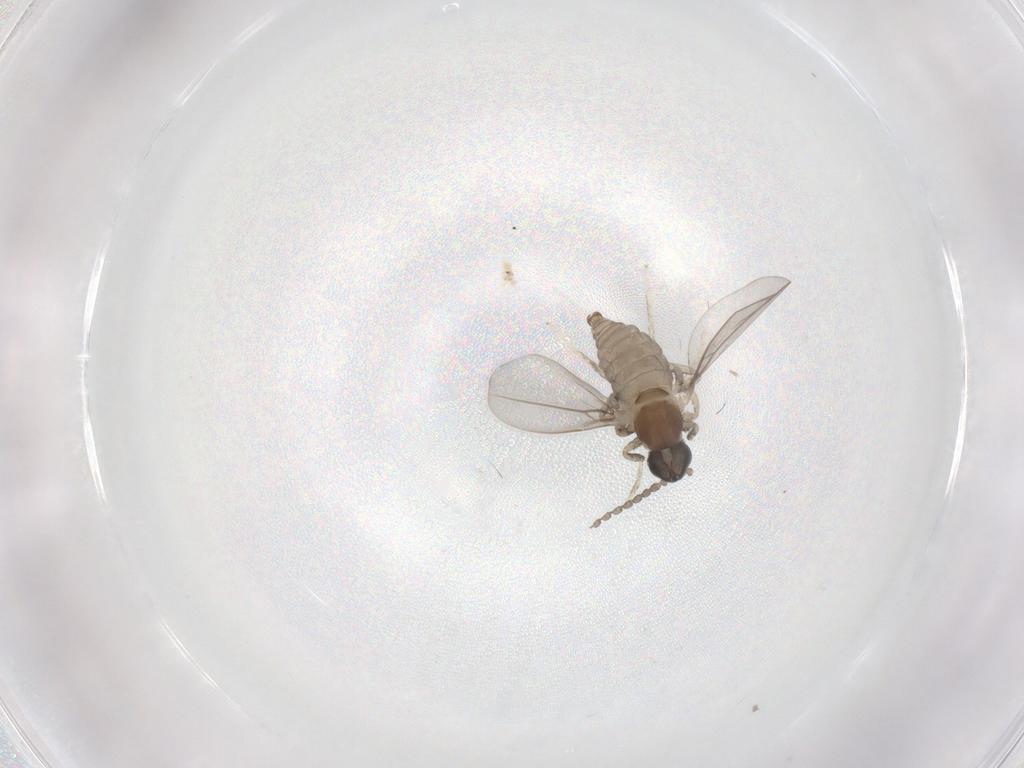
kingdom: Animalia
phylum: Arthropoda
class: Insecta
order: Diptera
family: Cecidomyiidae
